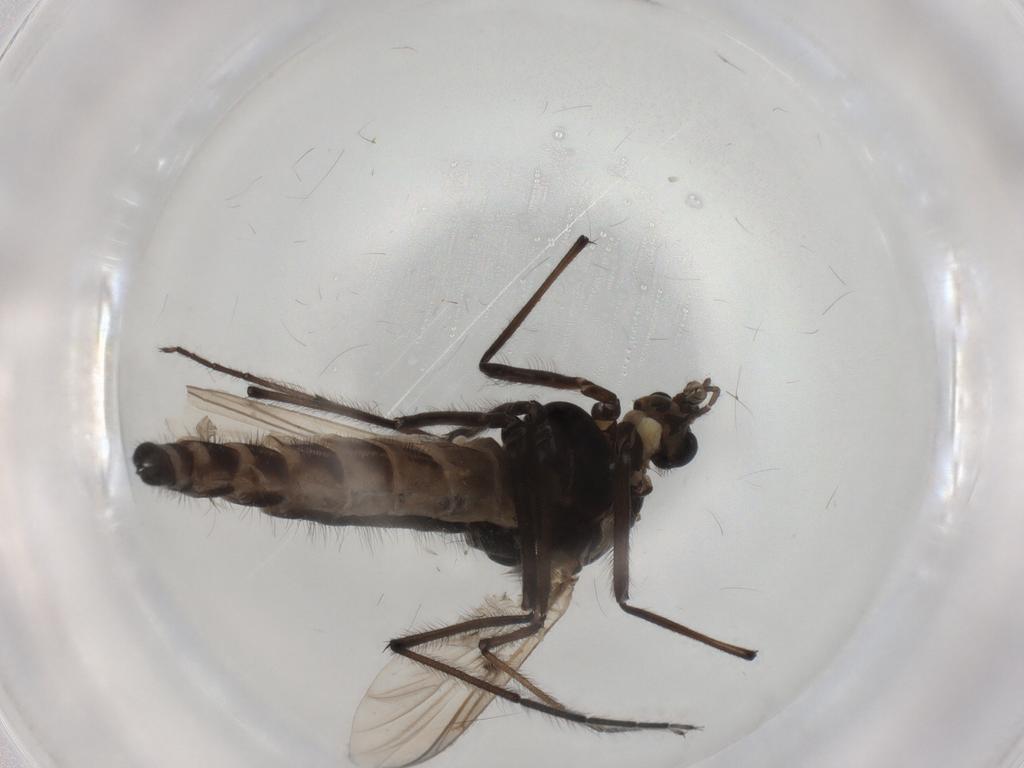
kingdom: Animalia
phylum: Arthropoda
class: Insecta
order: Diptera
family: Chironomidae
